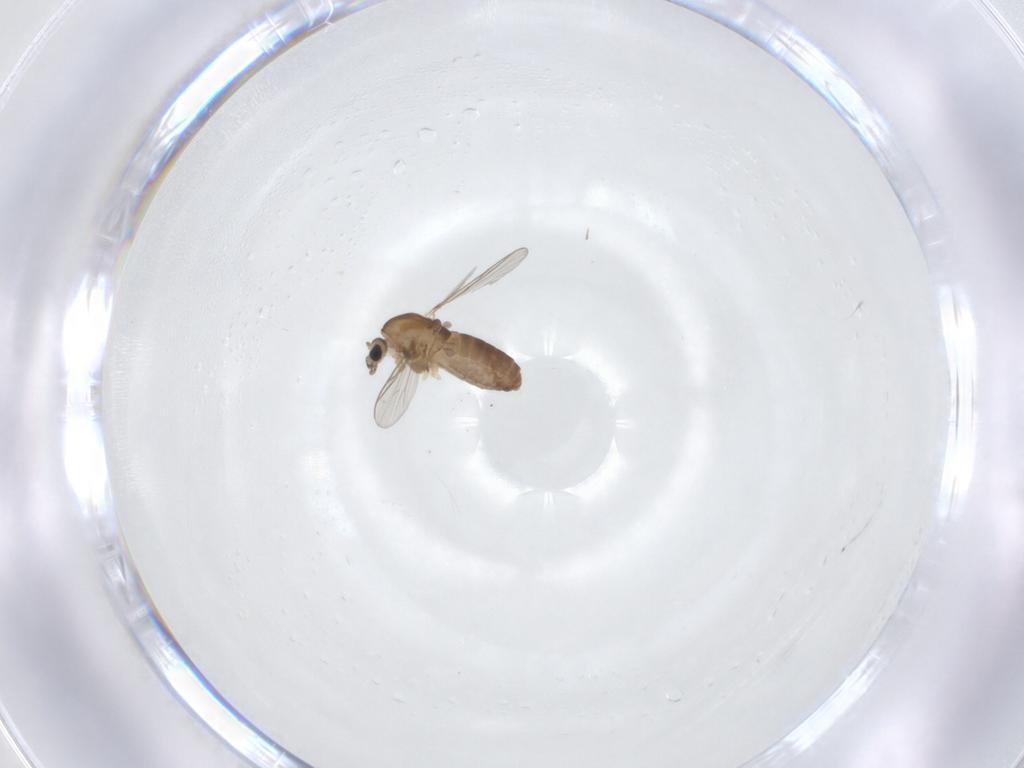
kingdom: Animalia
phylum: Arthropoda
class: Insecta
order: Diptera
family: Chironomidae
